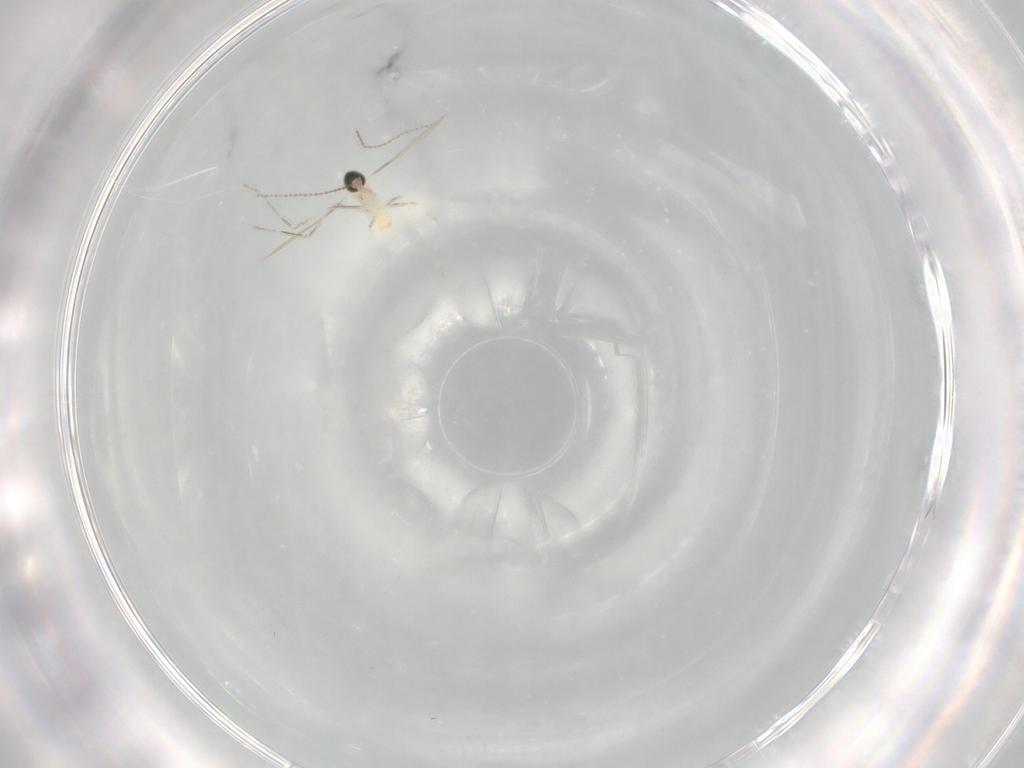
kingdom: Animalia
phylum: Arthropoda
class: Insecta
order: Diptera
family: Cecidomyiidae
